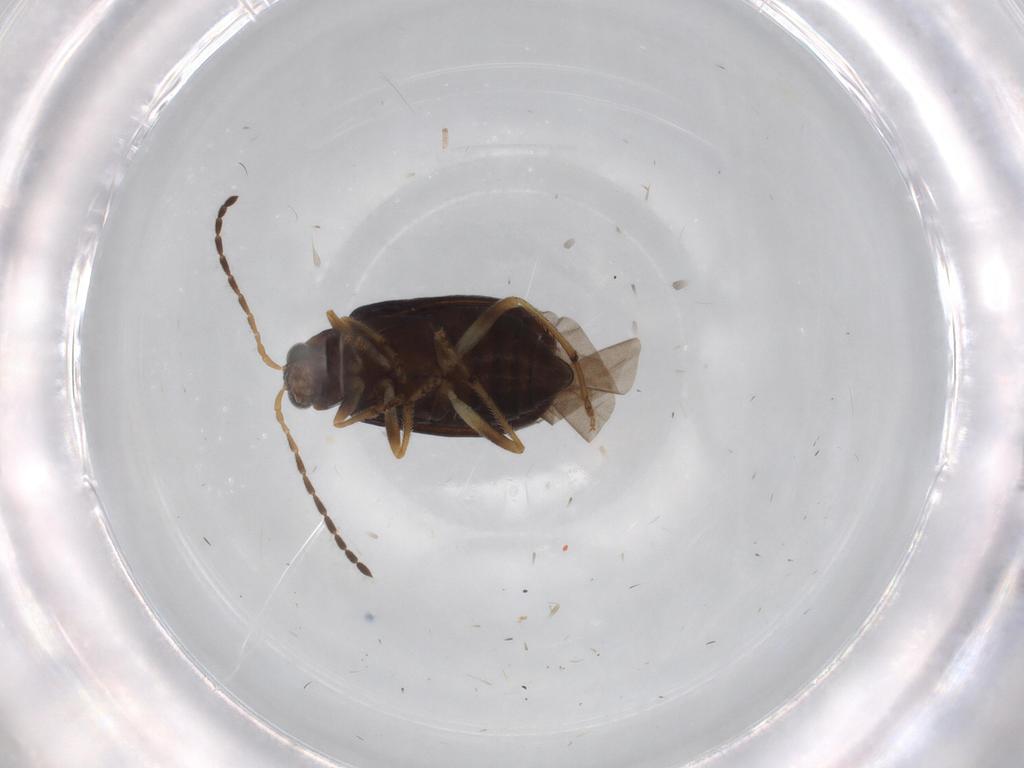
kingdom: Animalia
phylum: Arthropoda
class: Insecta
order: Coleoptera
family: Chrysomelidae
